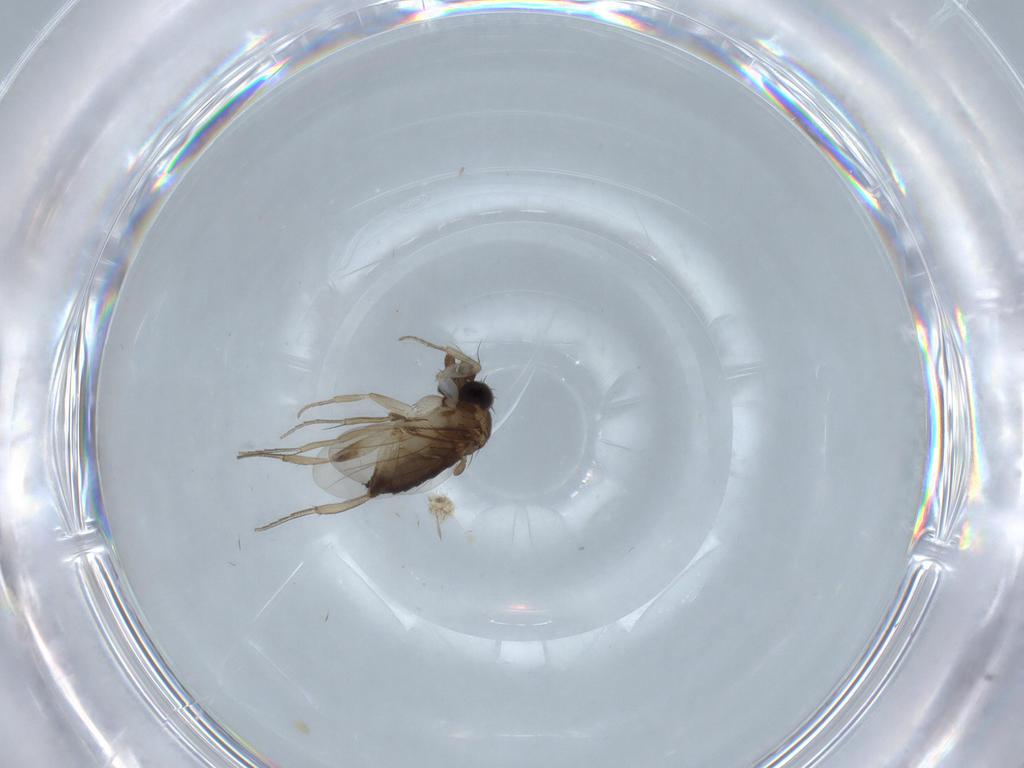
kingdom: Animalia
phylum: Arthropoda
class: Insecta
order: Diptera
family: Phoridae
